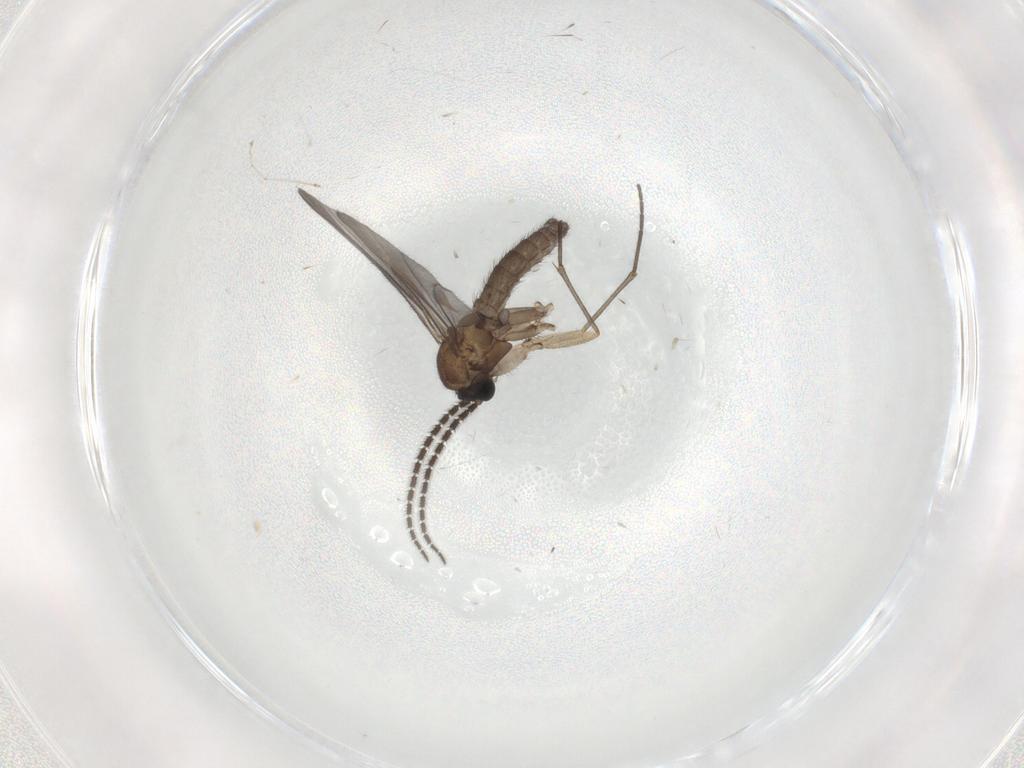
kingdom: Animalia
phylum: Arthropoda
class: Insecta
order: Diptera
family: Sciaridae
